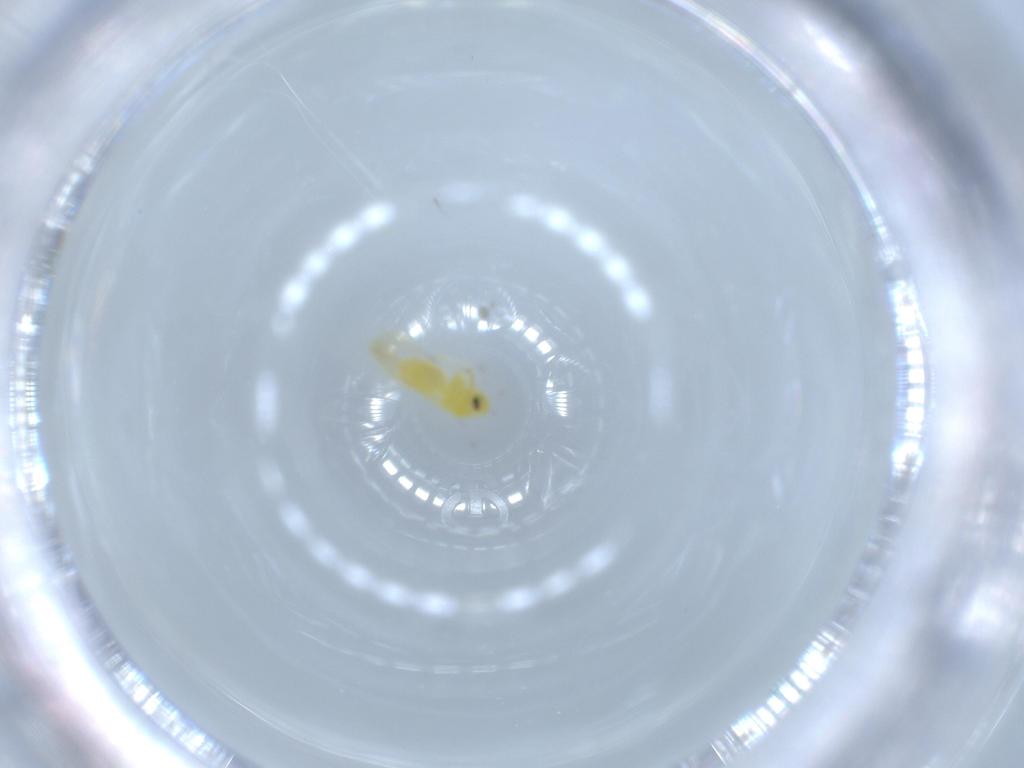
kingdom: Animalia
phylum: Arthropoda
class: Insecta
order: Hemiptera
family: Aleyrodidae
